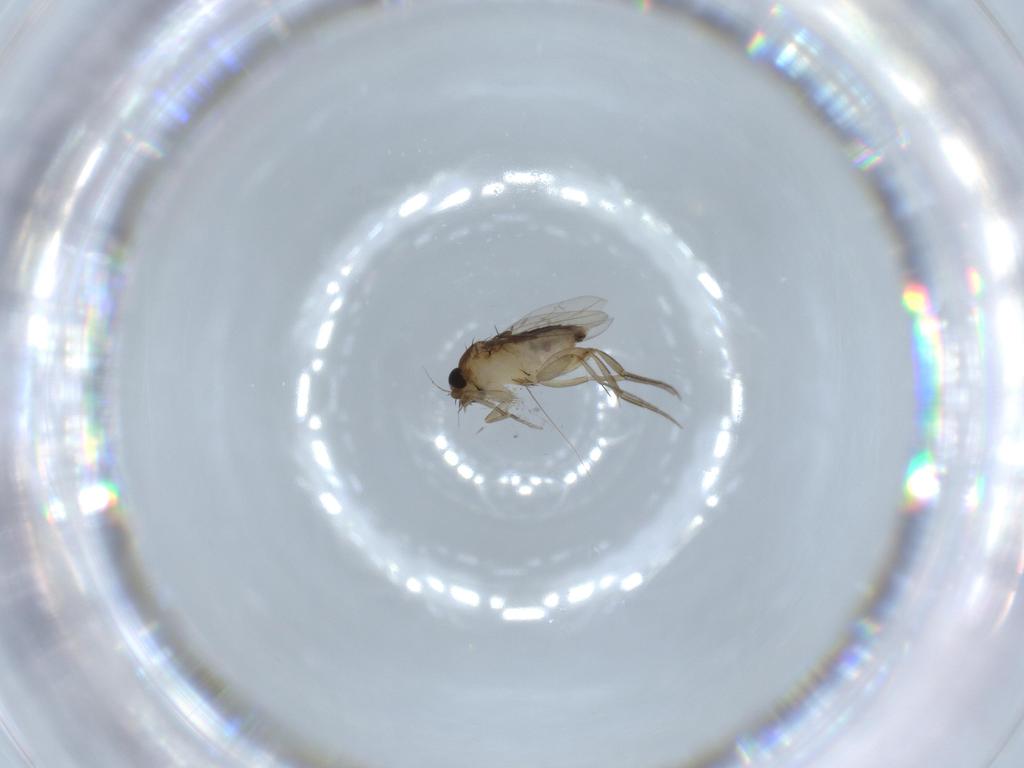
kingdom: Animalia
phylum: Arthropoda
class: Insecta
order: Diptera
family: Phoridae
